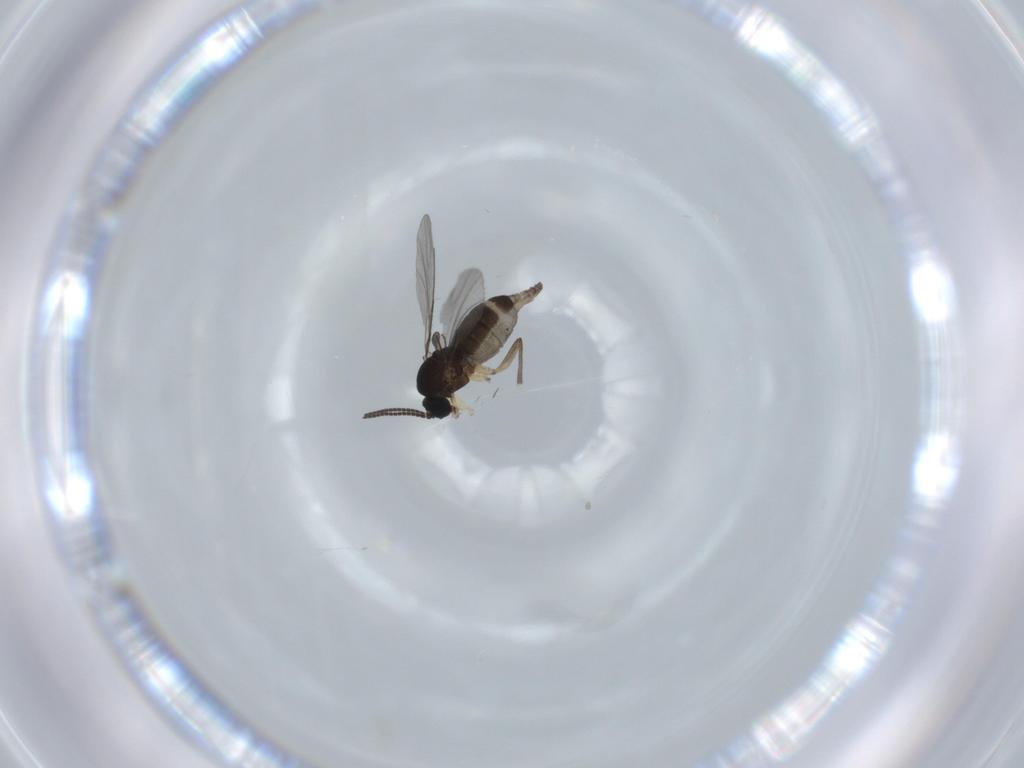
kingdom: Animalia
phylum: Arthropoda
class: Insecta
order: Diptera
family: Sciaridae
